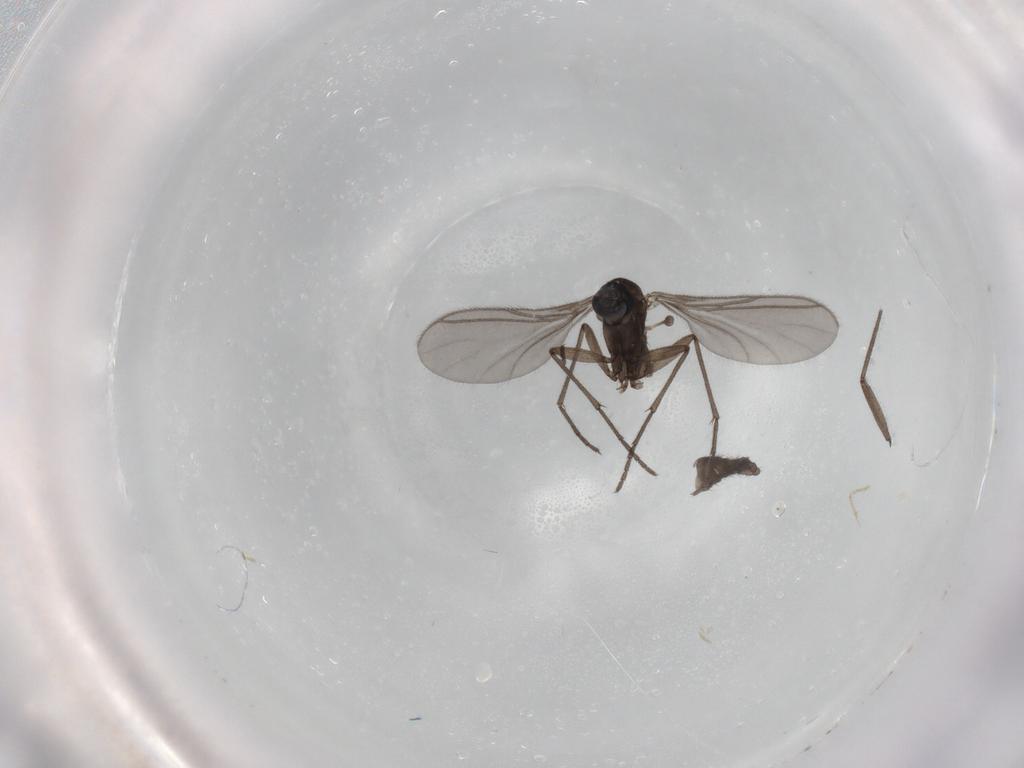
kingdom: Animalia
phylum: Arthropoda
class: Insecta
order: Diptera
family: Sciaridae
